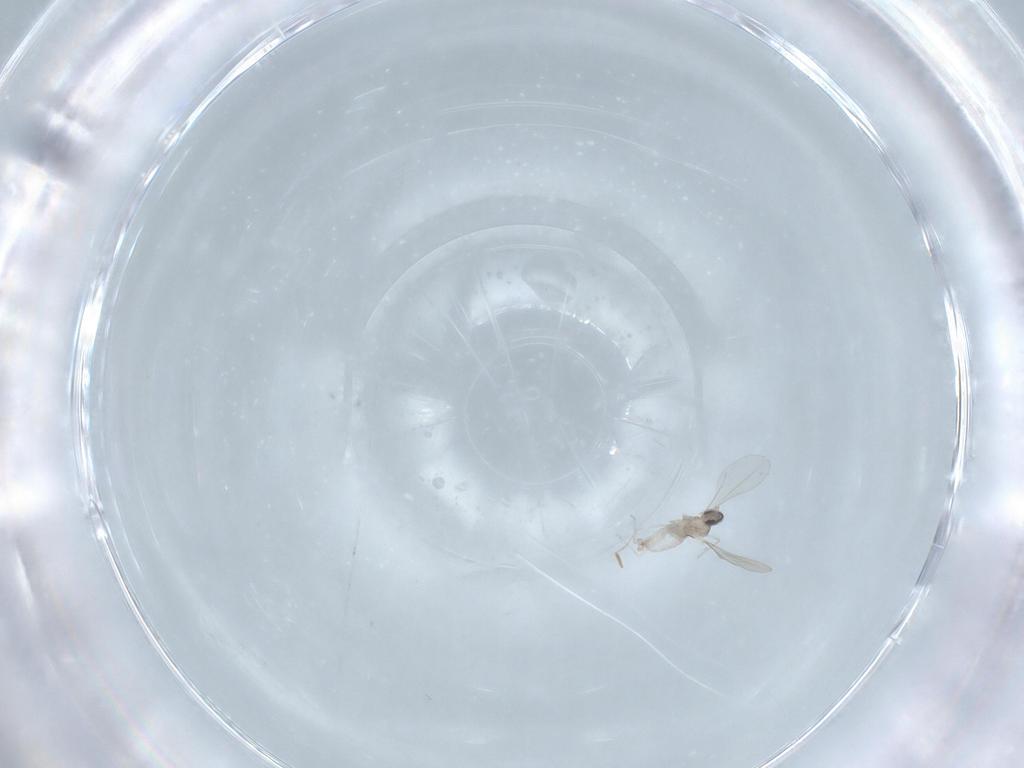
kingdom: Animalia
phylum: Arthropoda
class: Insecta
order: Diptera
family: Cecidomyiidae
